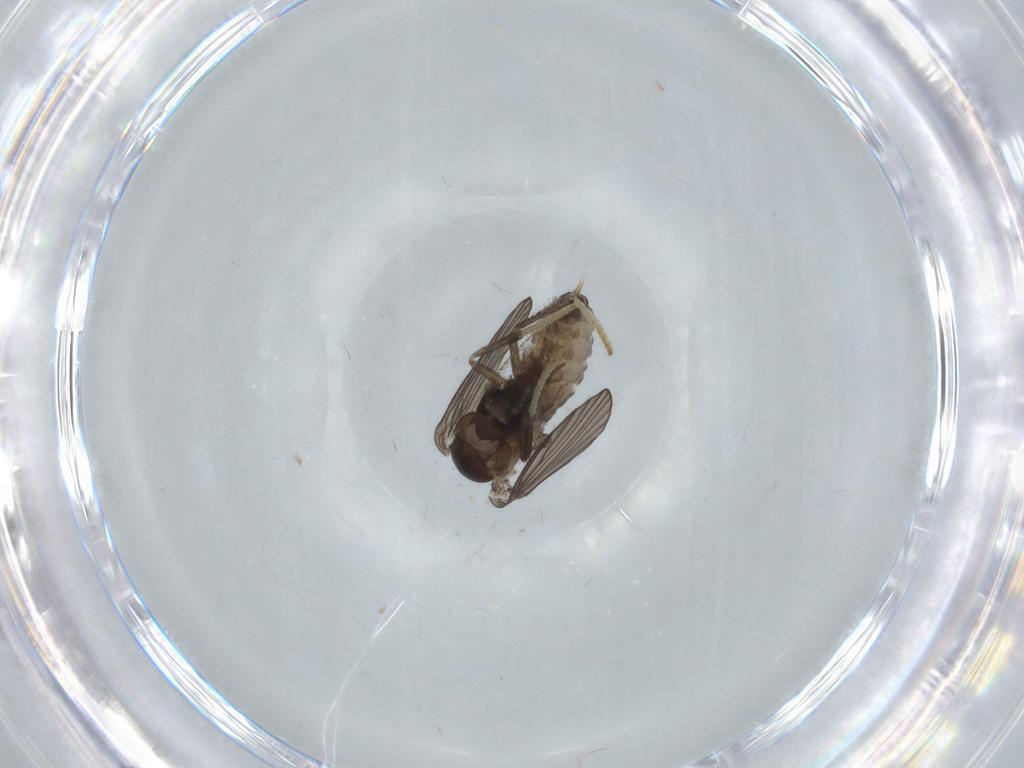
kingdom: Animalia
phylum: Arthropoda
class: Insecta
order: Diptera
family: Psychodidae
